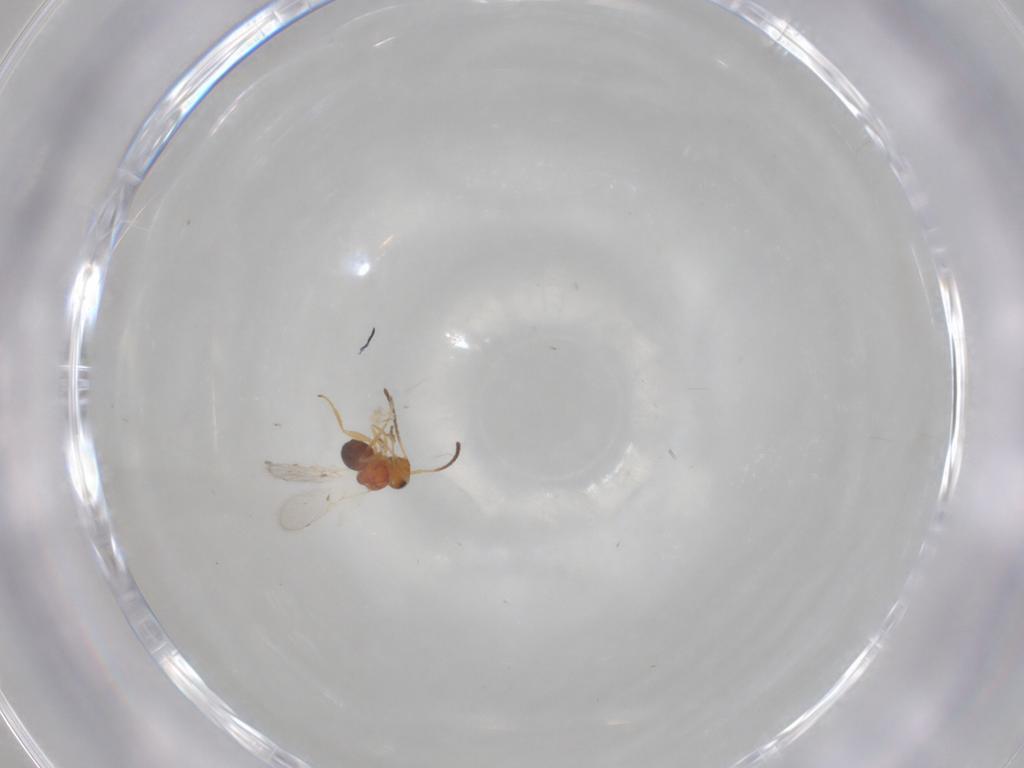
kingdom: Animalia
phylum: Arthropoda
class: Insecta
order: Hymenoptera
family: Figitidae
